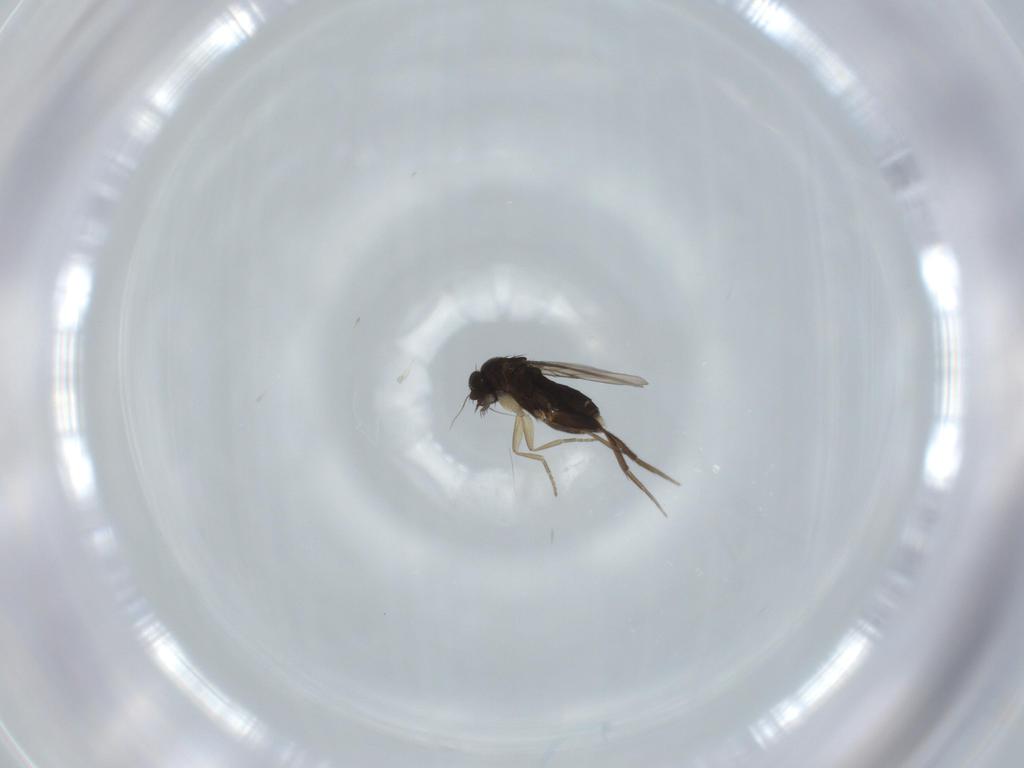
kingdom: Animalia
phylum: Arthropoda
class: Insecta
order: Diptera
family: Phoridae
